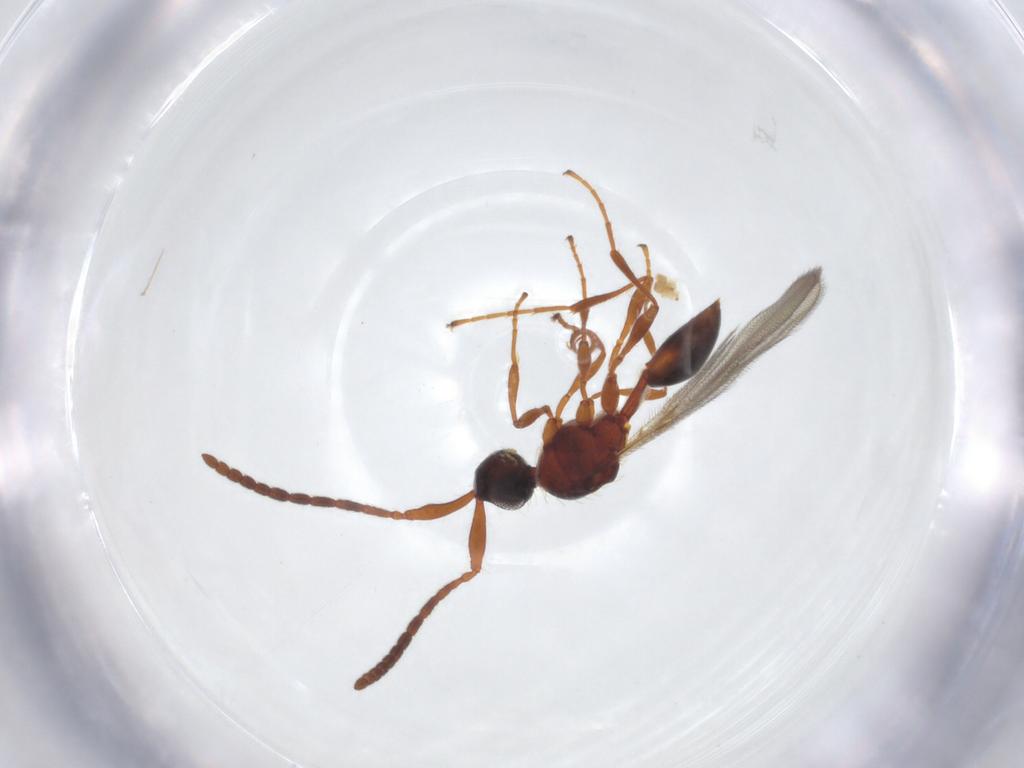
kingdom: Animalia
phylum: Arthropoda
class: Insecta
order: Hymenoptera
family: Diapriidae
